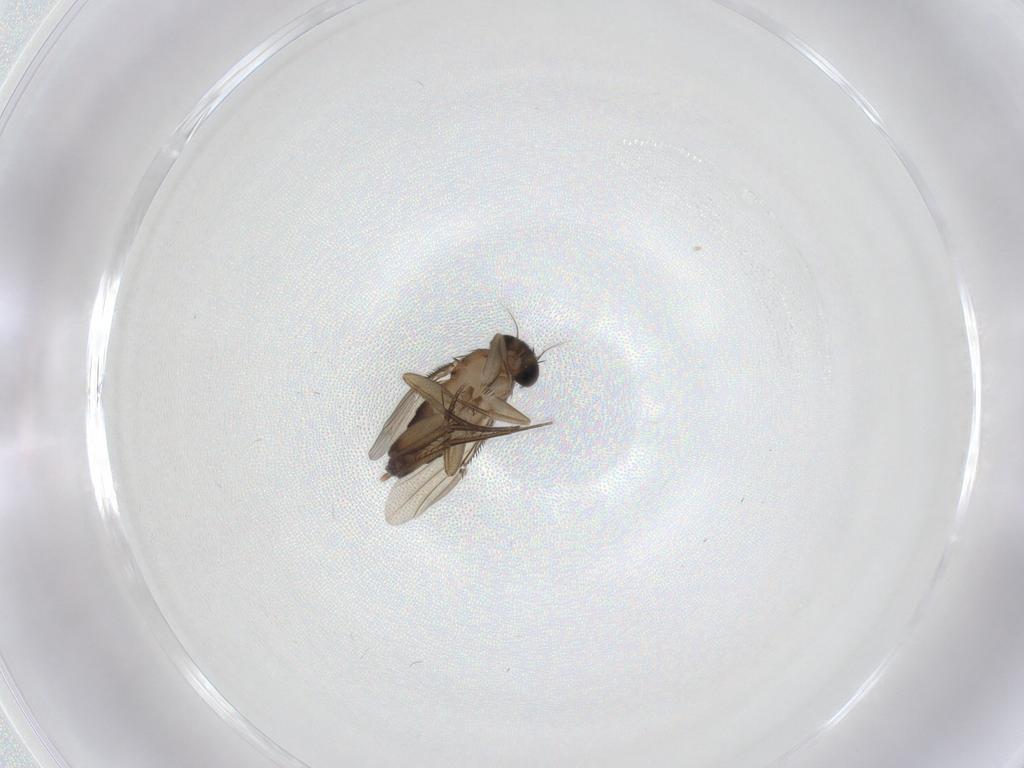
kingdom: Animalia
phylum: Arthropoda
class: Insecta
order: Diptera
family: Phoridae
